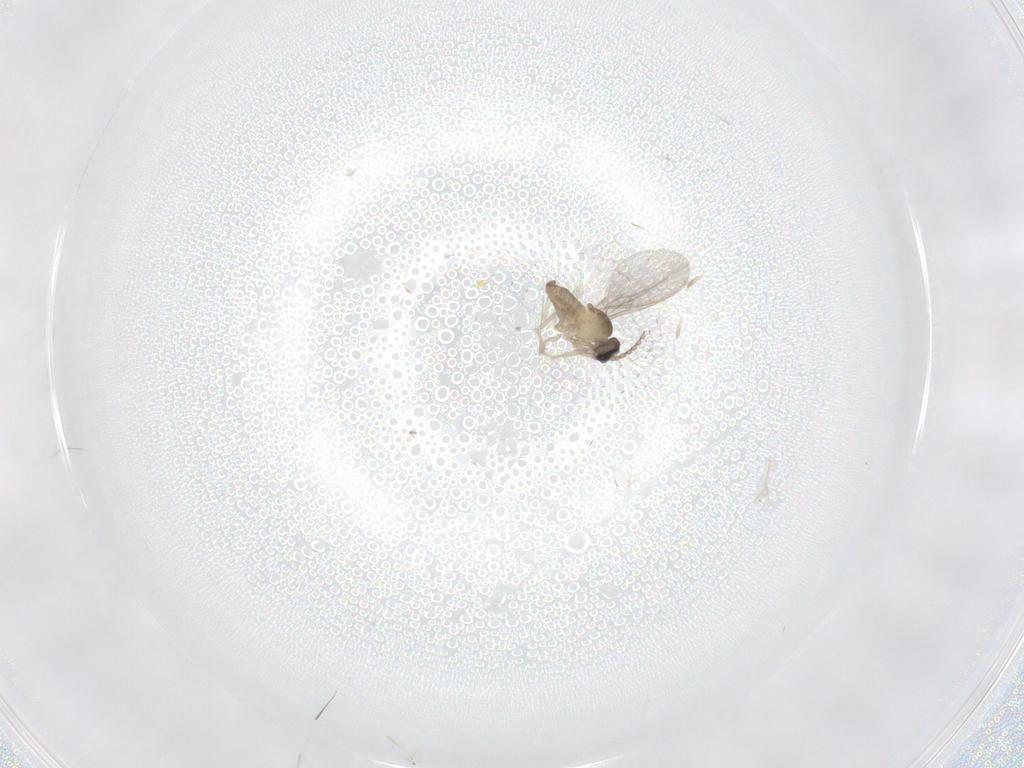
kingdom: Animalia
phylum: Arthropoda
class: Insecta
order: Diptera
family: Cecidomyiidae
